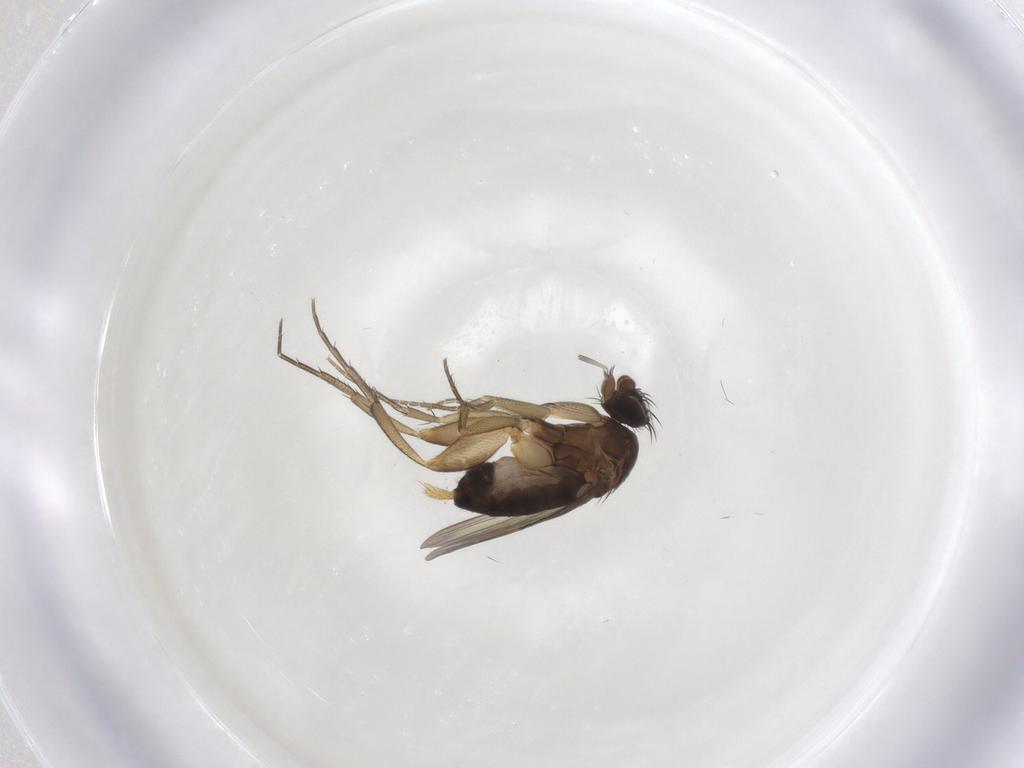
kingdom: Animalia
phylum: Arthropoda
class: Insecta
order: Diptera
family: Phoridae
